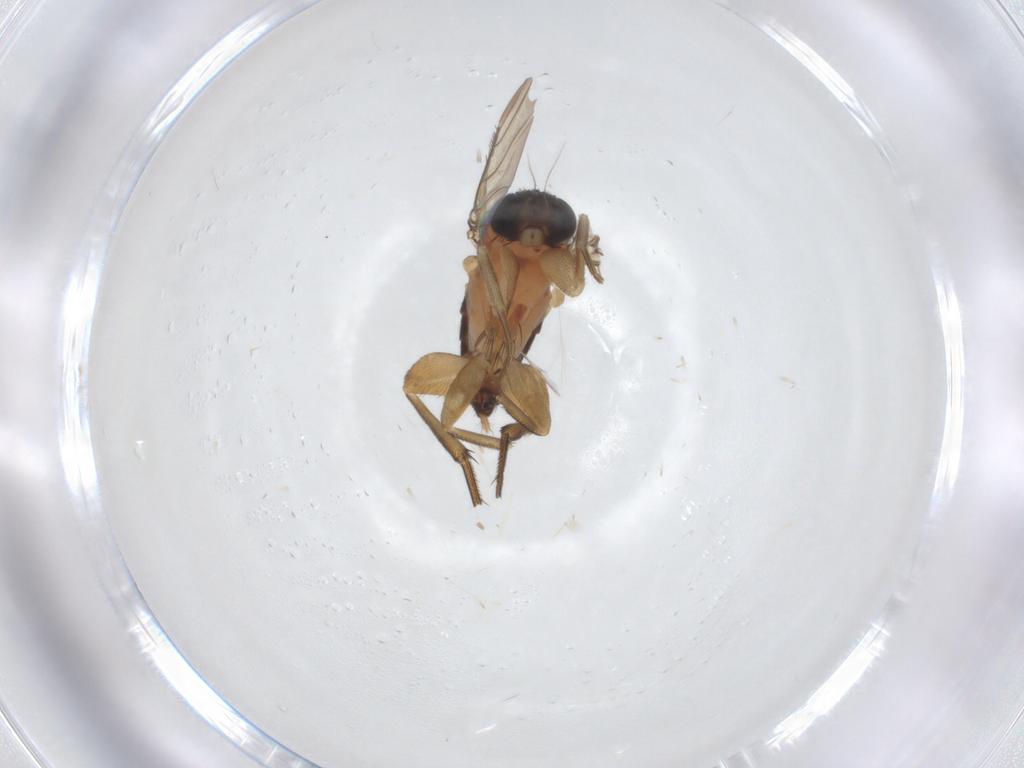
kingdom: Animalia
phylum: Arthropoda
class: Insecta
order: Diptera
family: Phoridae
